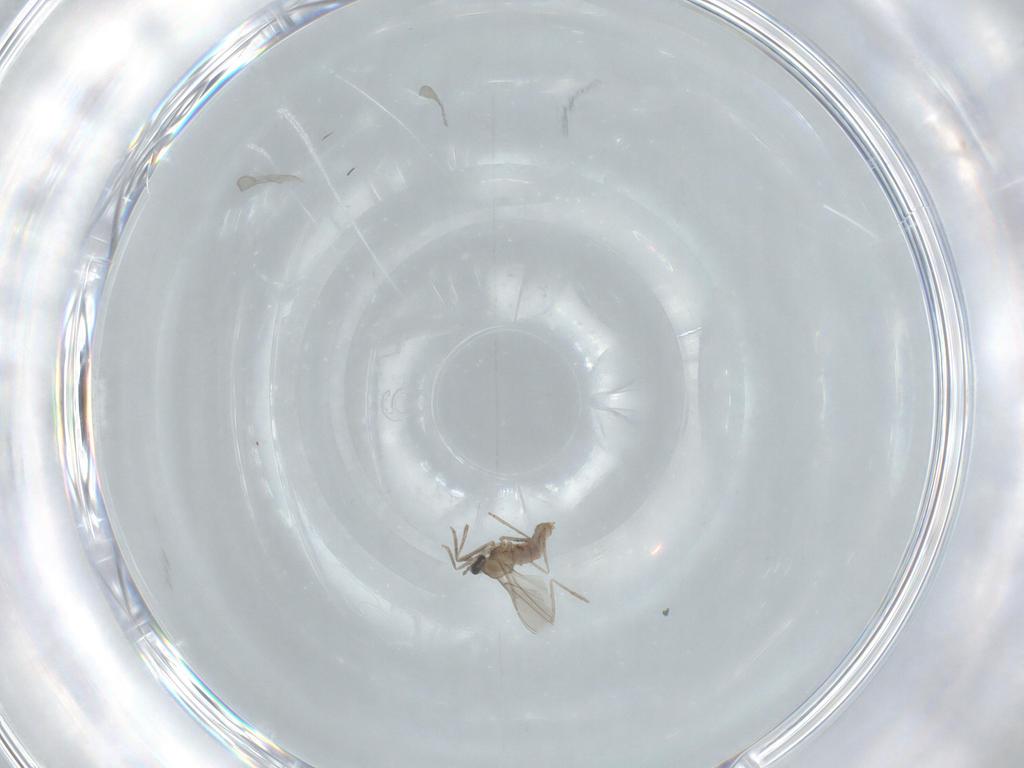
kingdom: Animalia
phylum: Arthropoda
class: Insecta
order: Diptera
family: Cecidomyiidae
